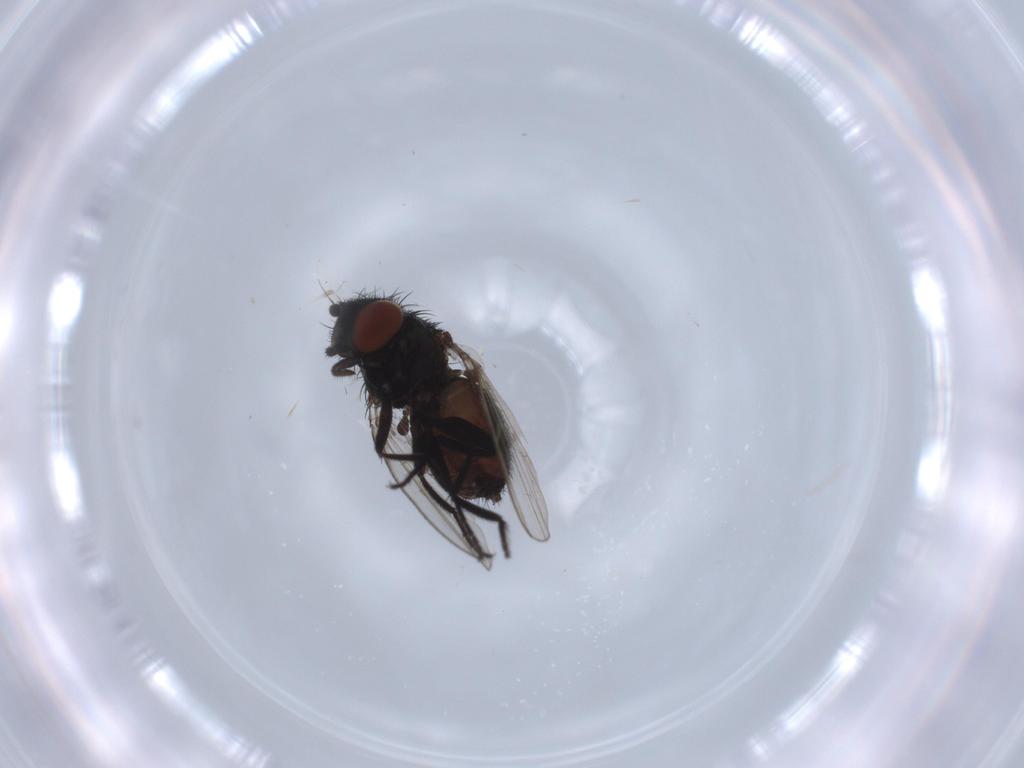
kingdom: Animalia
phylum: Arthropoda
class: Insecta
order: Diptera
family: Milichiidae
